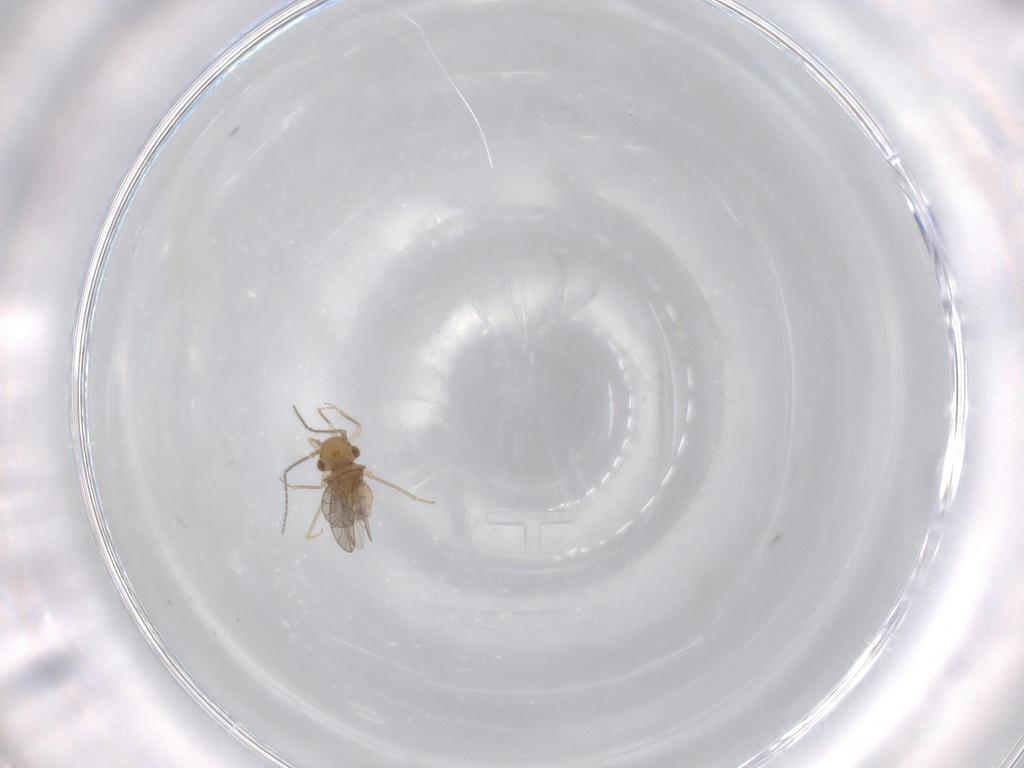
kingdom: Animalia
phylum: Arthropoda
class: Insecta
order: Psocodea
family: Ectopsocidae
